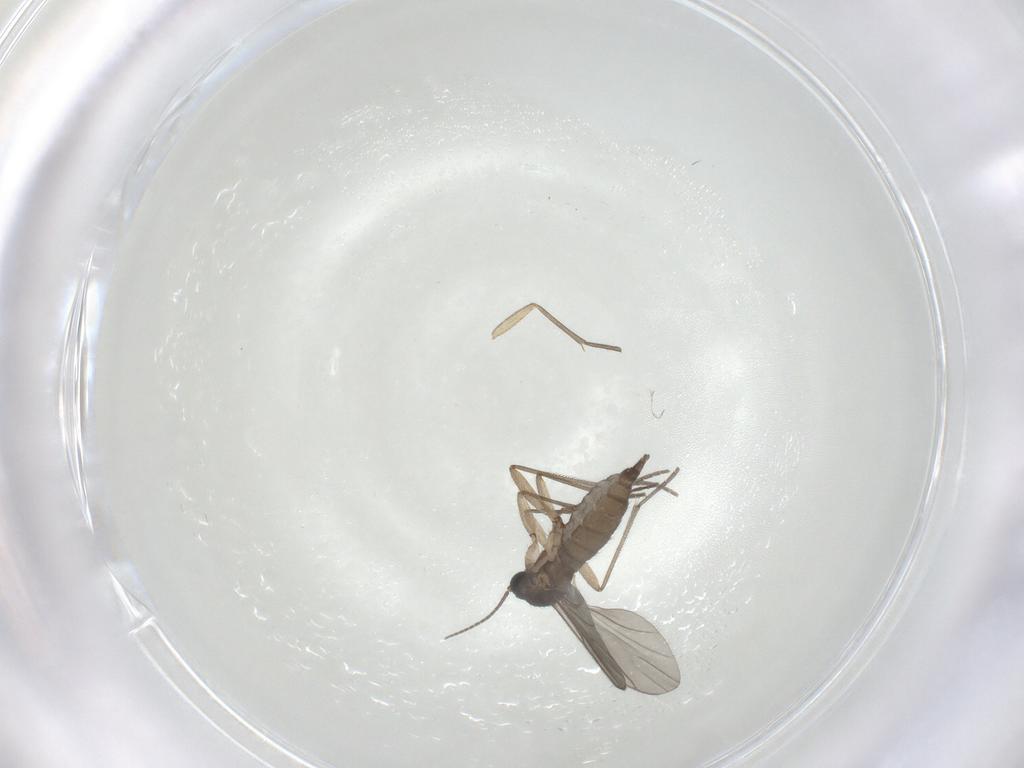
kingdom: Animalia
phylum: Arthropoda
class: Insecta
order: Diptera
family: Sciaridae
